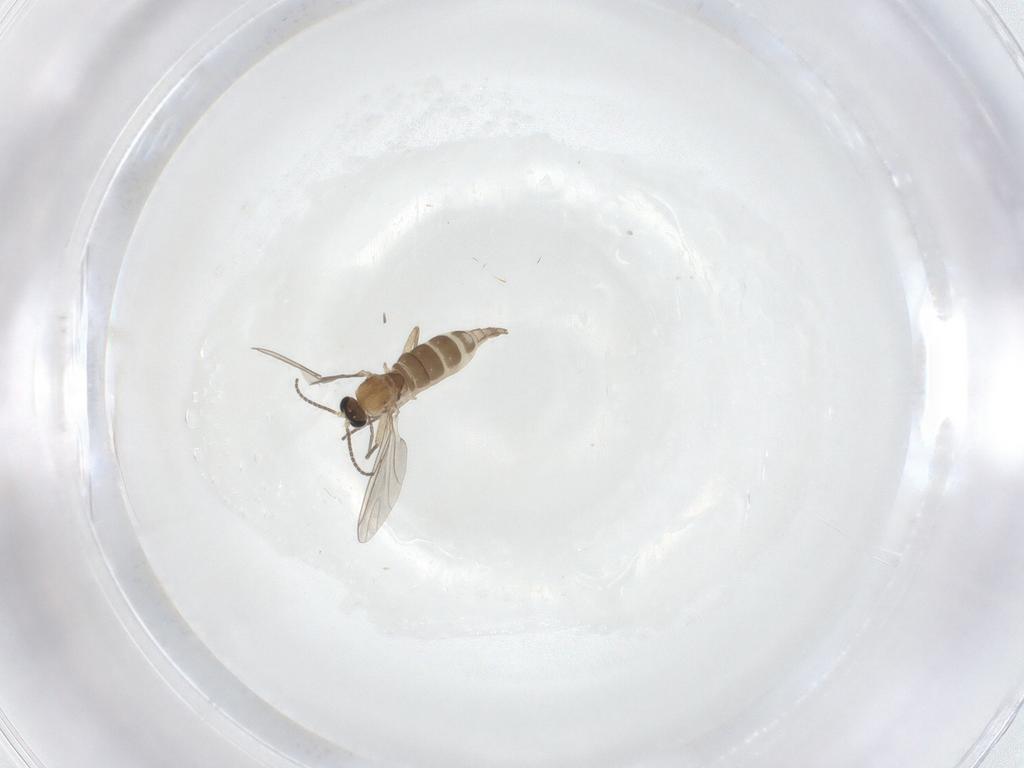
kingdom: Animalia
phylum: Arthropoda
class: Insecta
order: Diptera
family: Sciaridae
